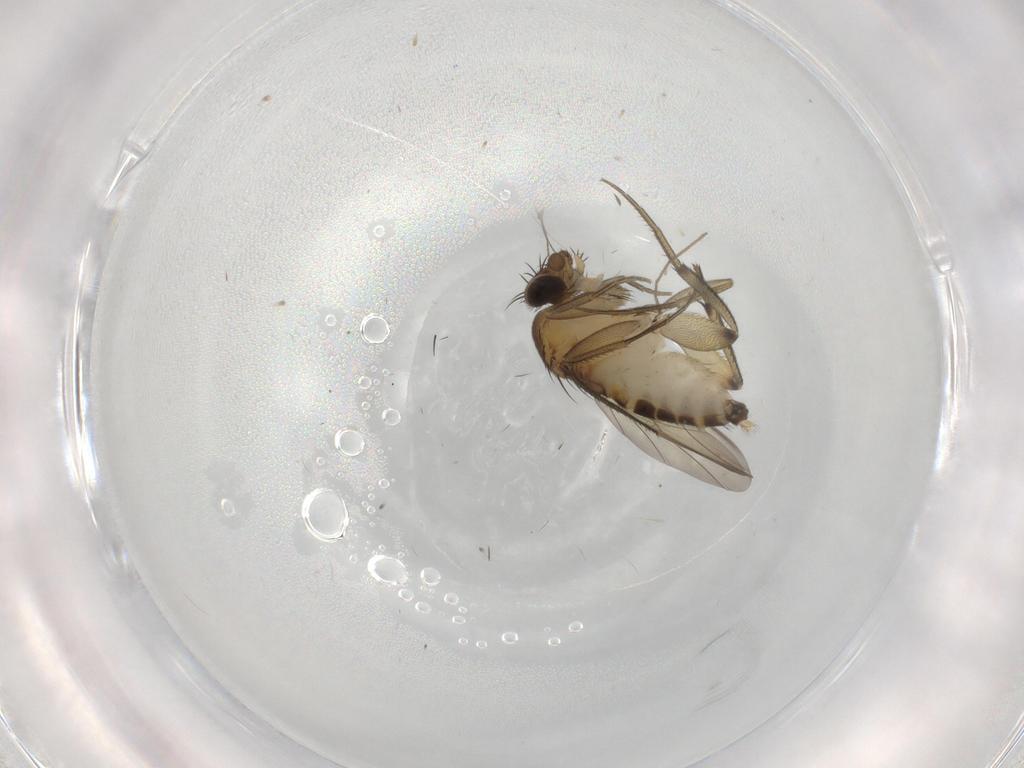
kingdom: Animalia
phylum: Arthropoda
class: Insecta
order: Diptera
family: Phoridae
